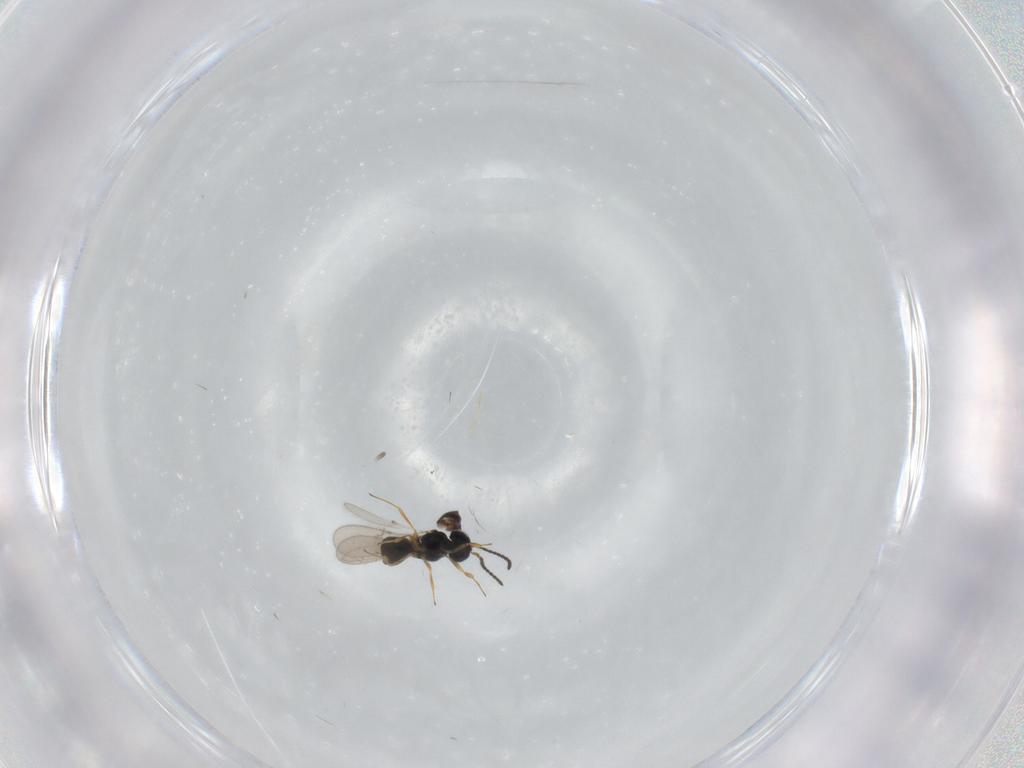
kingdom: Animalia
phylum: Arthropoda
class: Insecta
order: Hymenoptera
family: Scelionidae
